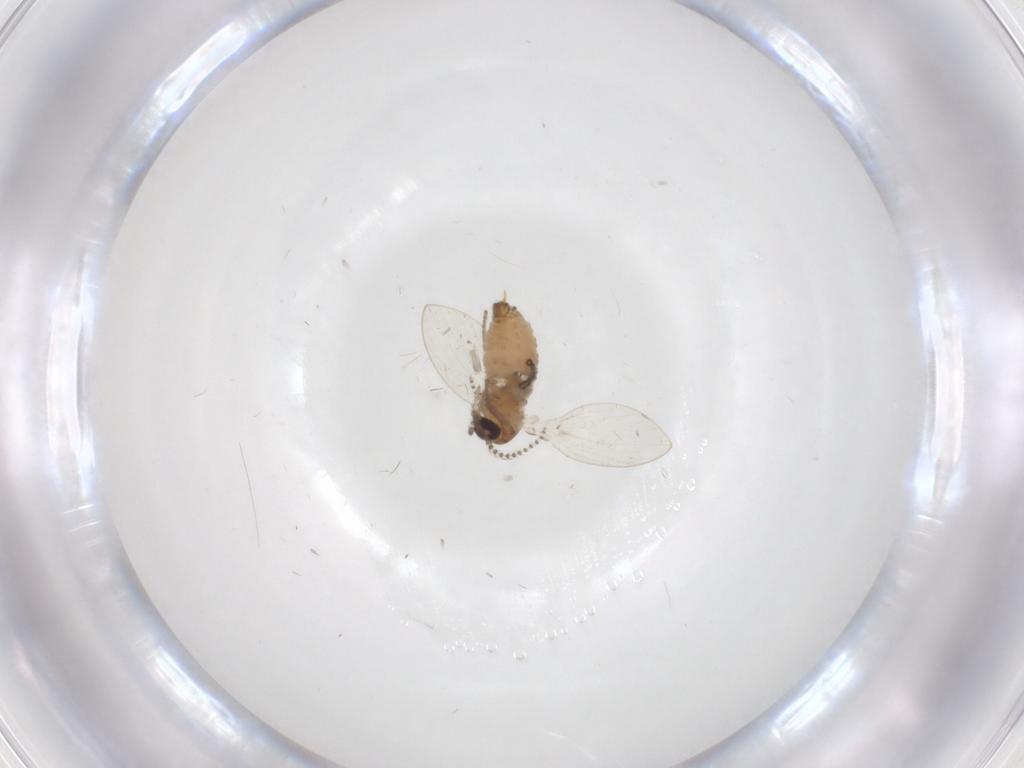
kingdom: Animalia
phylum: Arthropoda
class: Insecta
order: Diptera
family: Psychodidae
